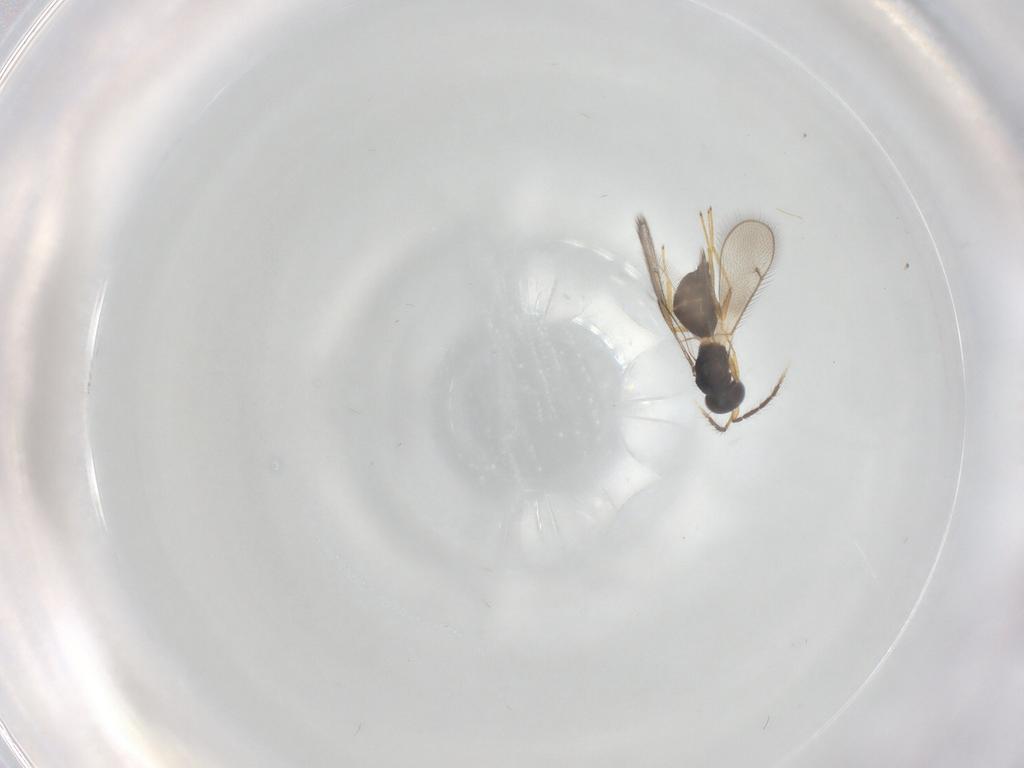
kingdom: Animalia
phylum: Arthropoda
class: Insecta
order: Hymenoptera
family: Eulophidae
